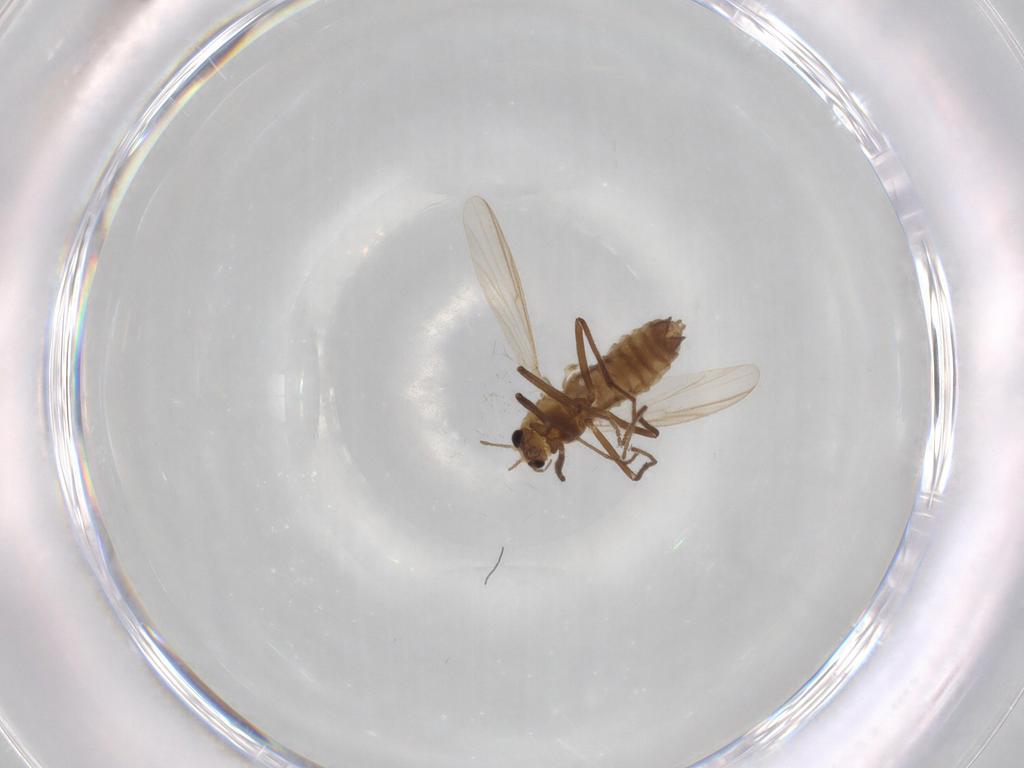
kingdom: Animalia
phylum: Arthropoda
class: Insecta
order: Diptera
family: Chironomidae
